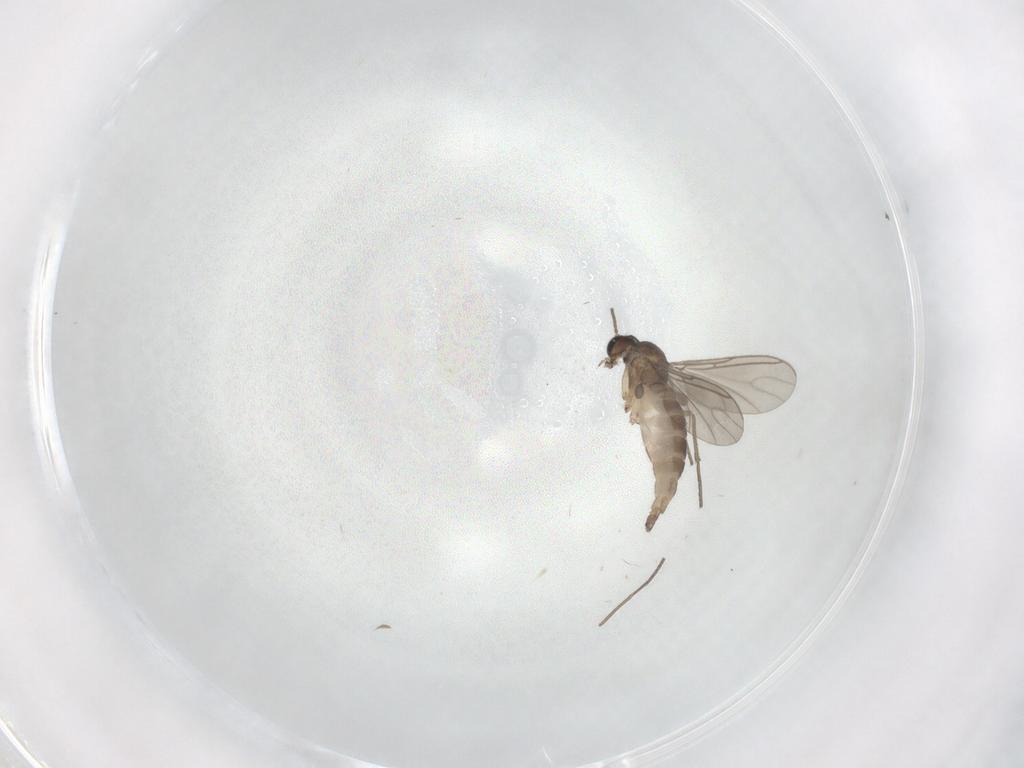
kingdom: Animalia
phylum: Arthropoda
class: Insecta
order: Diptera
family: Sciaridae
